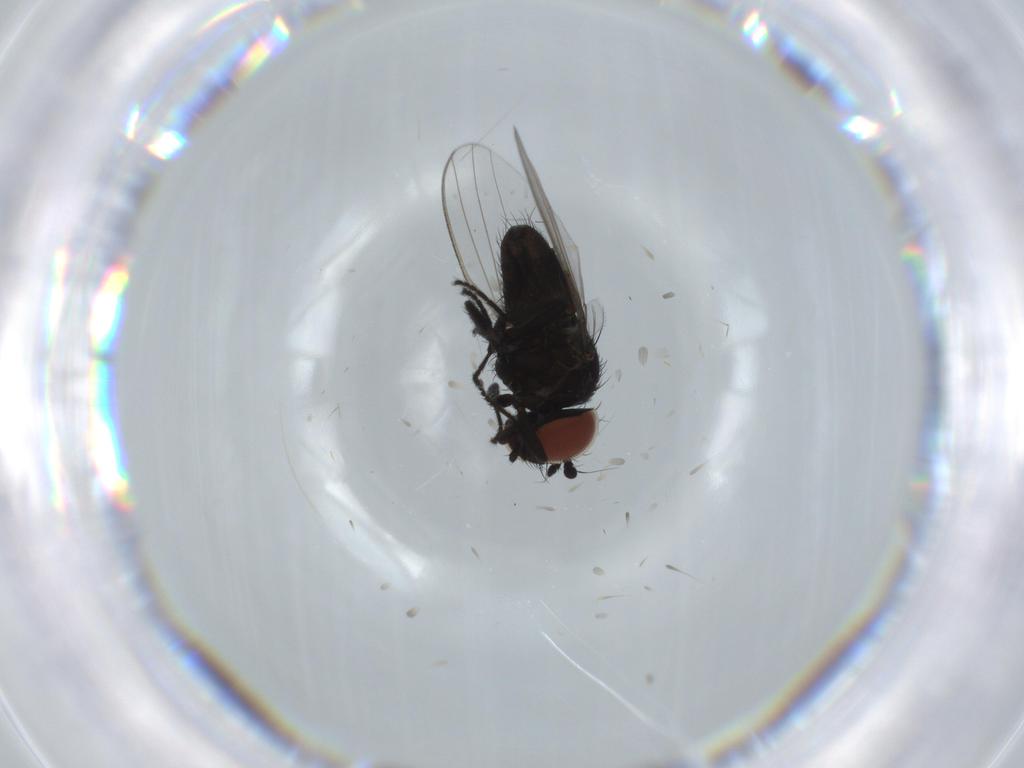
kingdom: Animalia
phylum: Arthropoda
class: Insecta
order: Diptera
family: Milichiidae
